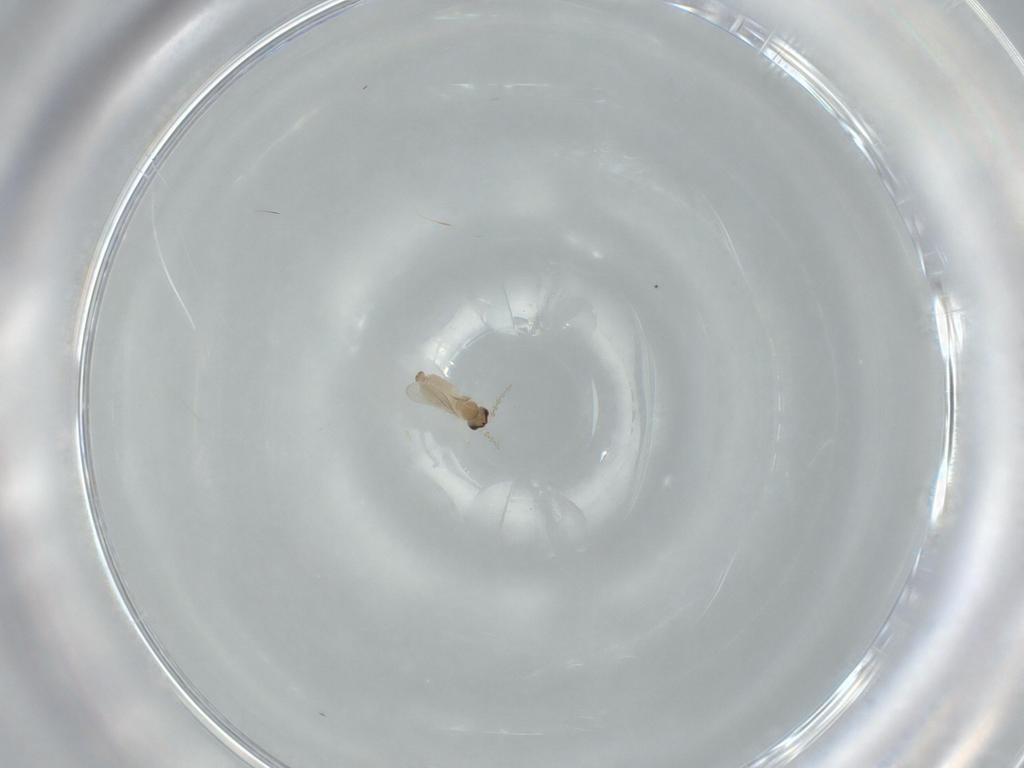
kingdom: Animalia
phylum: Arthropoda
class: Insecta
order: Diptera
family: Cecidomyiidae
